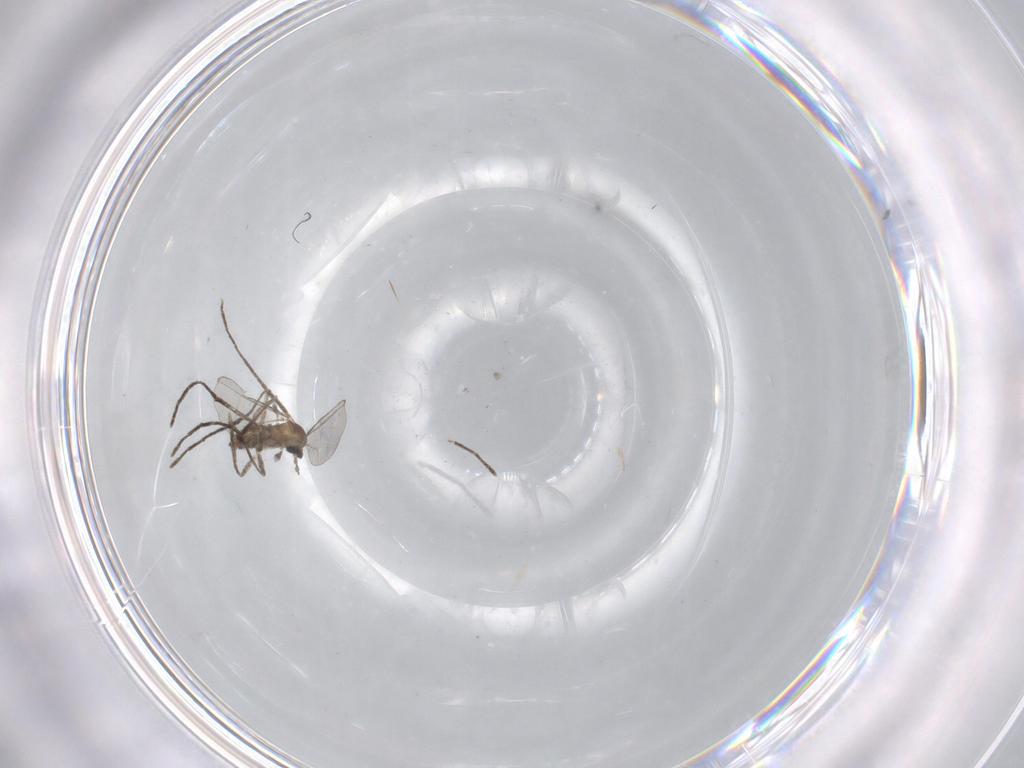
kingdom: Animalia
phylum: Arthropoda
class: Insecta
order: Diptera
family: Chironomidae
